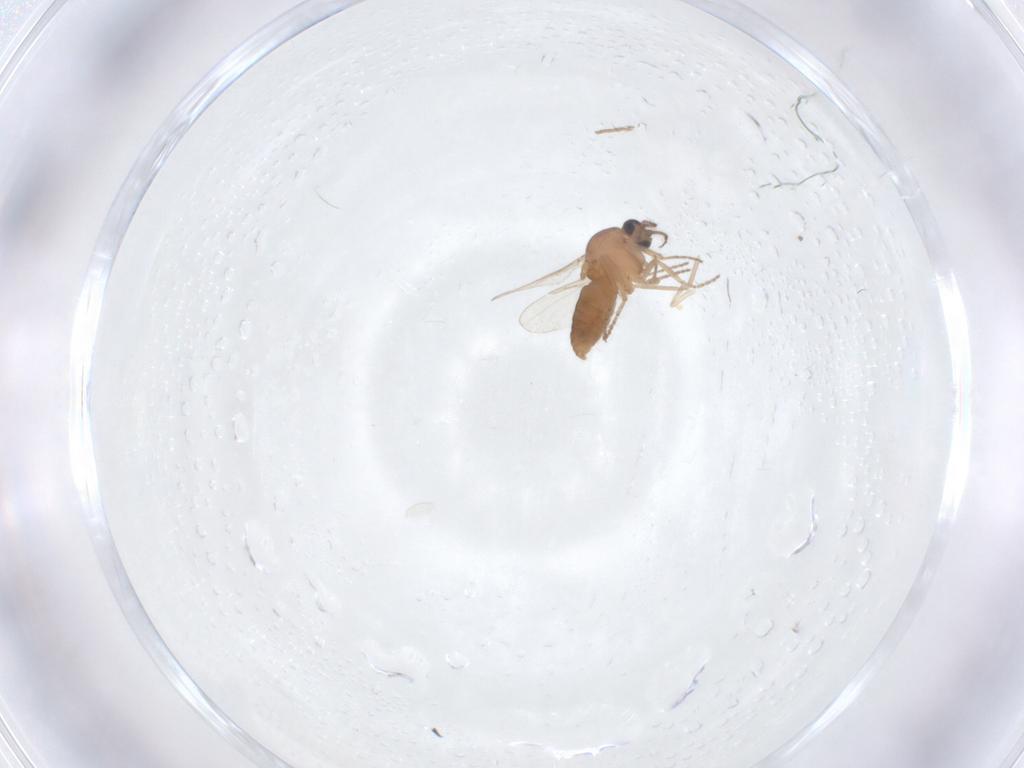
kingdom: Animalia
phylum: Arthropoda
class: Insecta
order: Diptera
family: Ceratopogonidae
